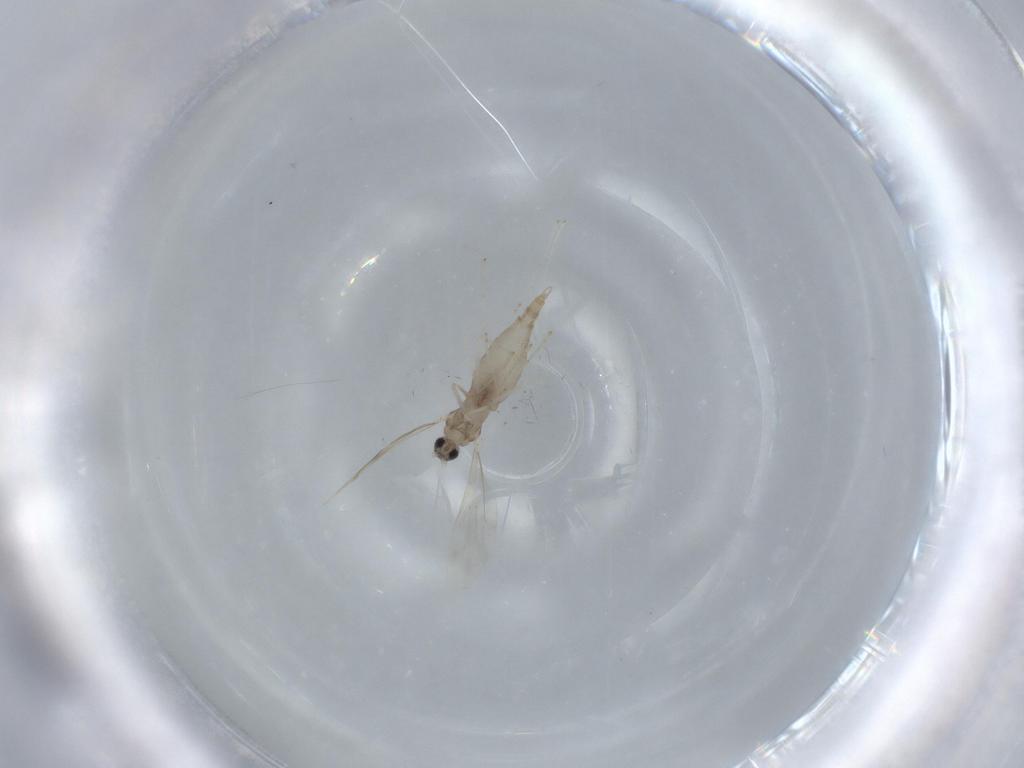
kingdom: Animalia
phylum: Arthropoda
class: Insecta
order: Diptera
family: Cecidomyiidae
